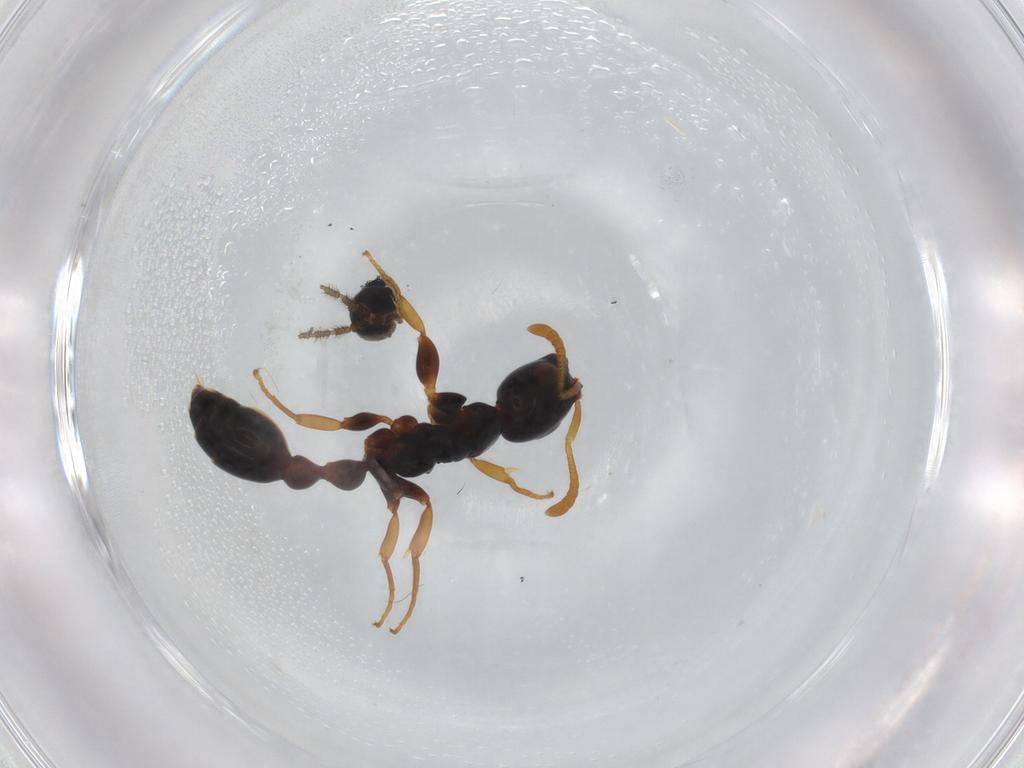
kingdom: Animalia
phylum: Arthropoda
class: Insecta
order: Hymenoptera
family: Formicidae
